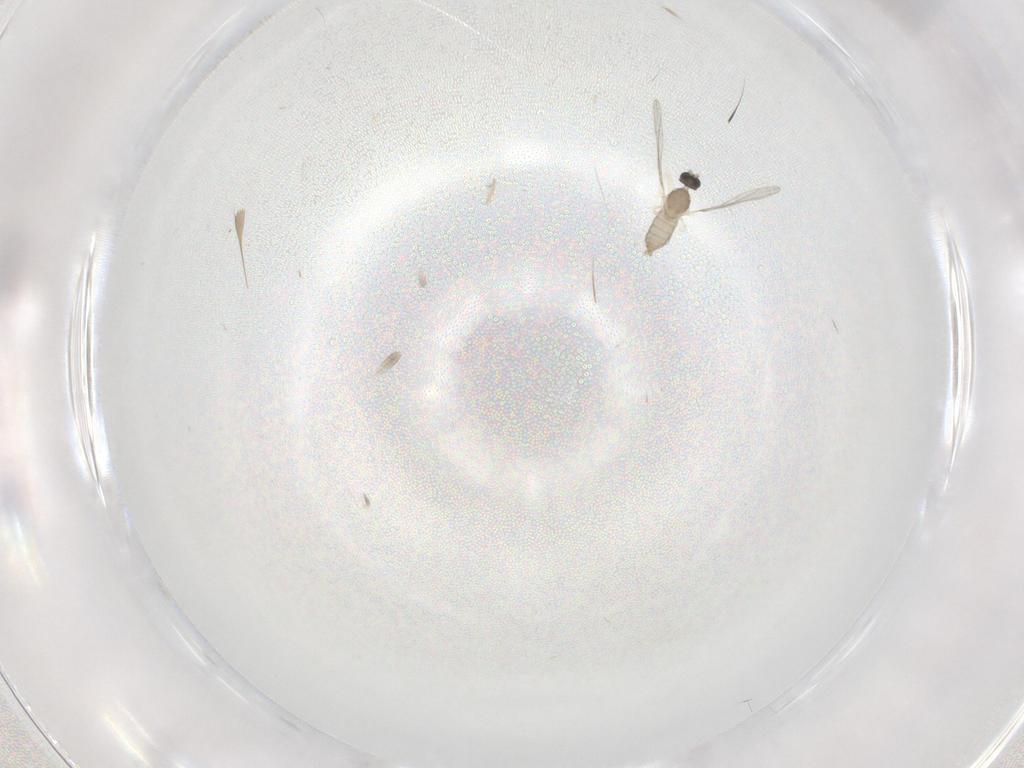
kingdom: Animalia
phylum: Arthropoda
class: Insecta
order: Diptera
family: Cecidomyiidae
